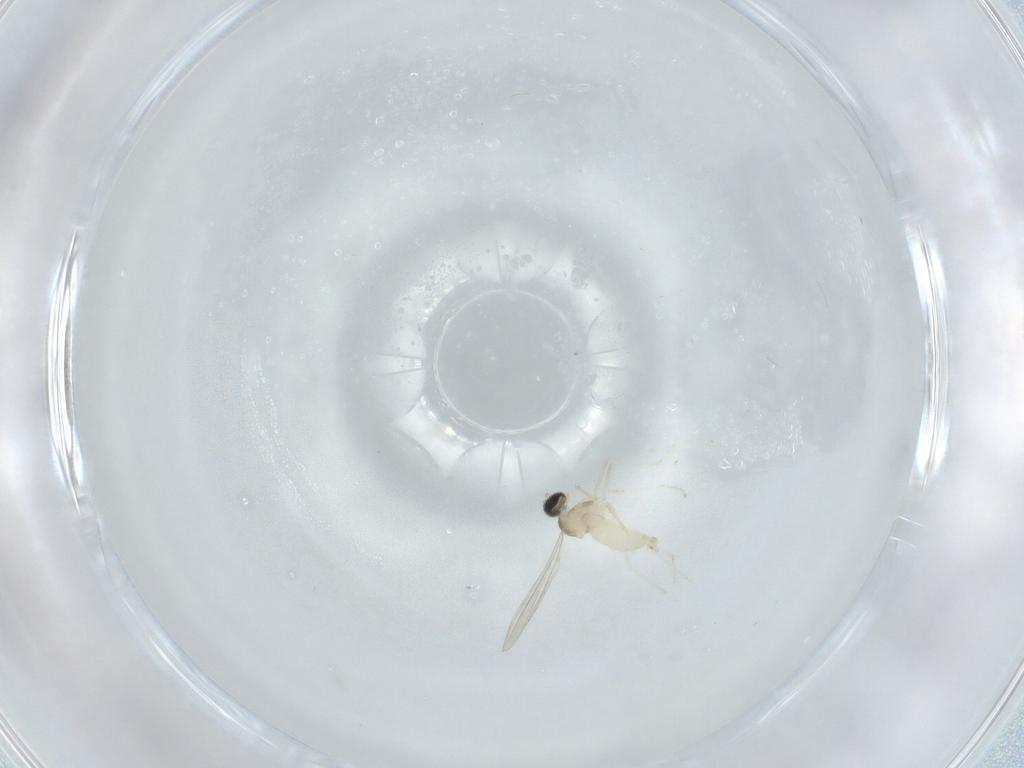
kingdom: Animalia
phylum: Arthropoda
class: Insecta
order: Diptera
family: Cecidomyiidae
